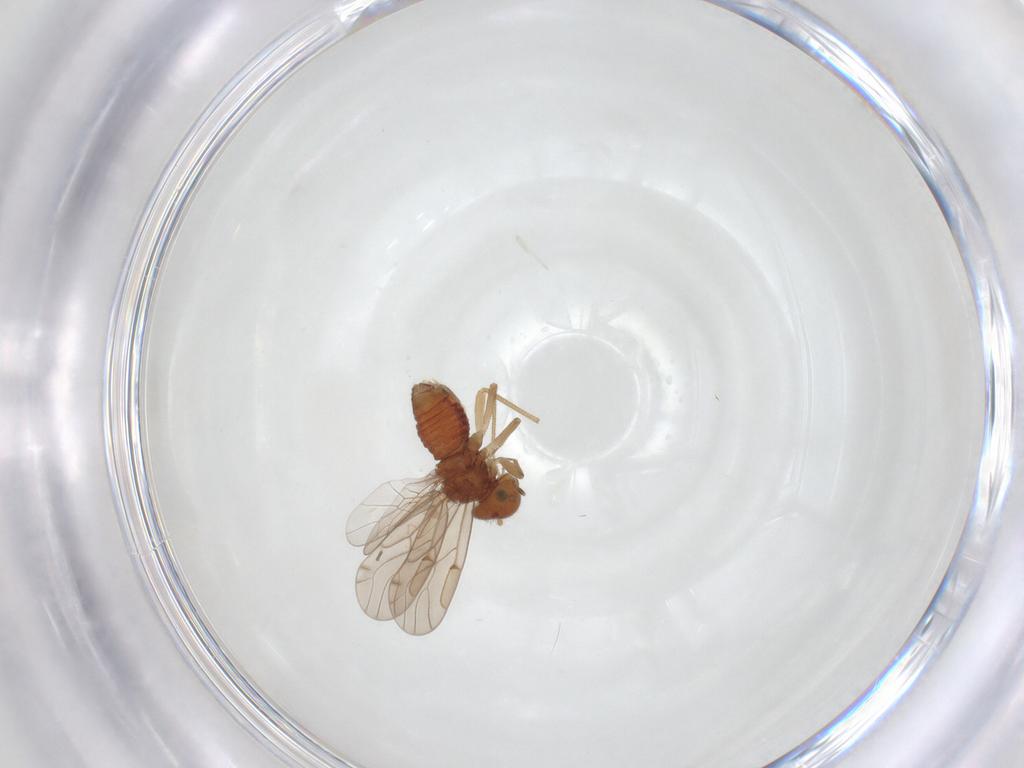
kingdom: Animalia
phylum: Arthropoda
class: Insecta
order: Psocodea
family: Ectopsocidae
